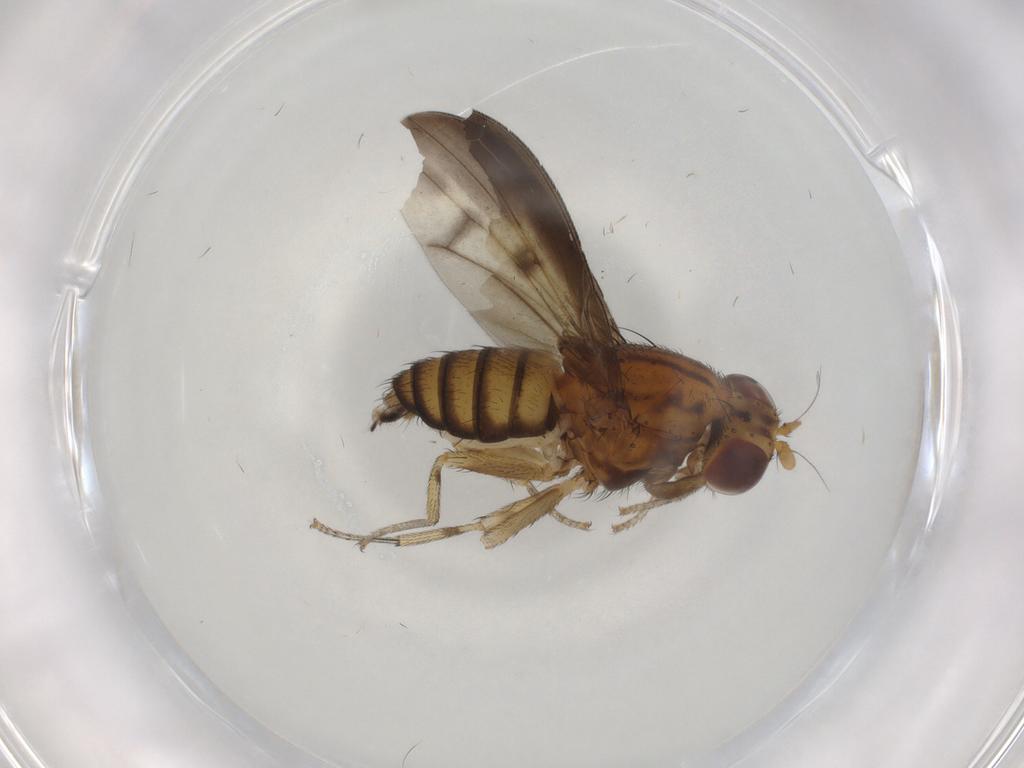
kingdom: Animalia
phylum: Arthropoda
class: Insecta
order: Diptera
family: Lauxaniidae
